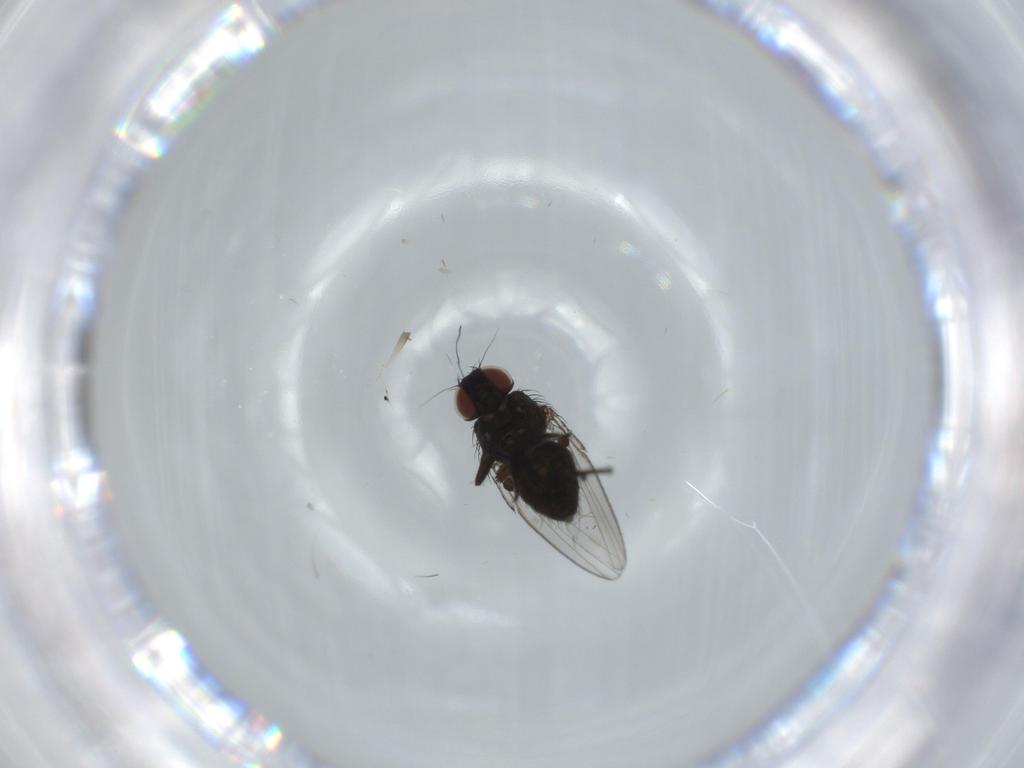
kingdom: Animalia
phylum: Arthropoda
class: Insecta
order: Diptera
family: Milichiidae
